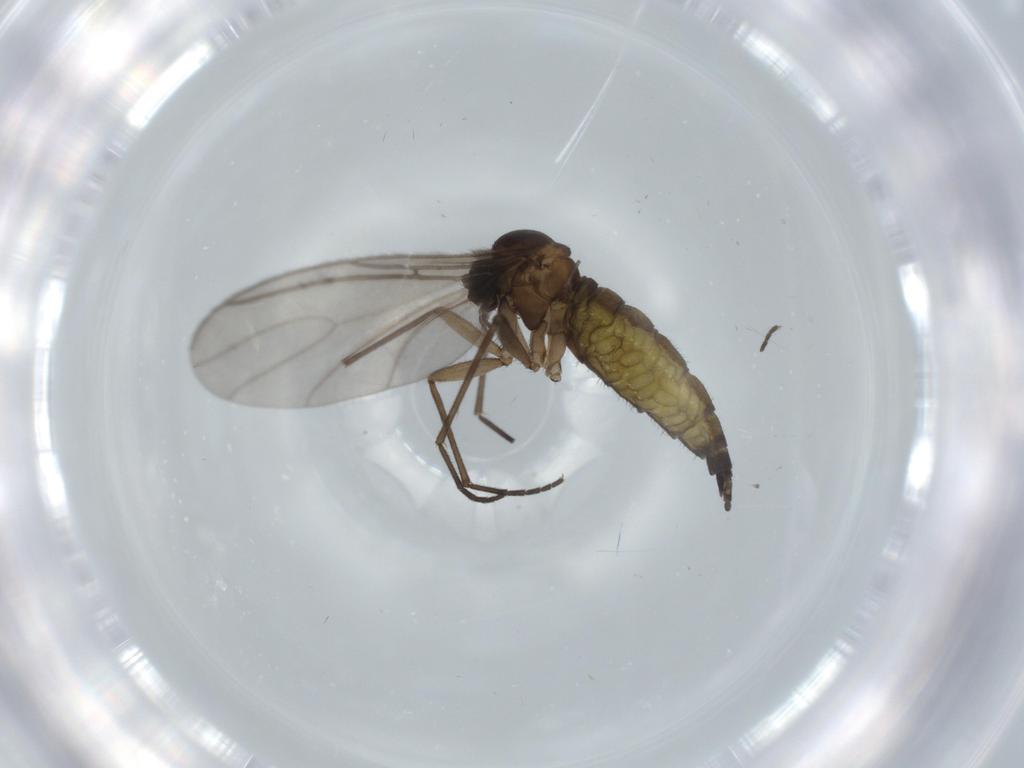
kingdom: Animalia
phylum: Arthropoda
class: Insecta
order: Diptera
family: Sciaridae
